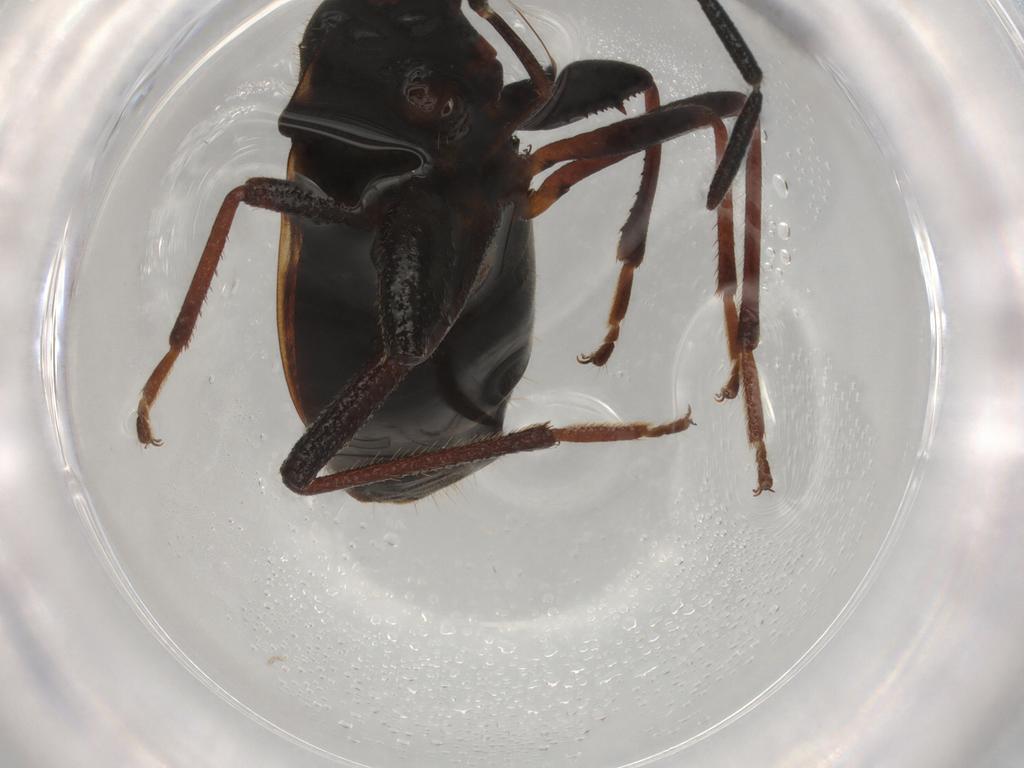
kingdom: Animalia
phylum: Arthropoda
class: Insecta
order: Hemiptera
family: Rhyparochromidae
